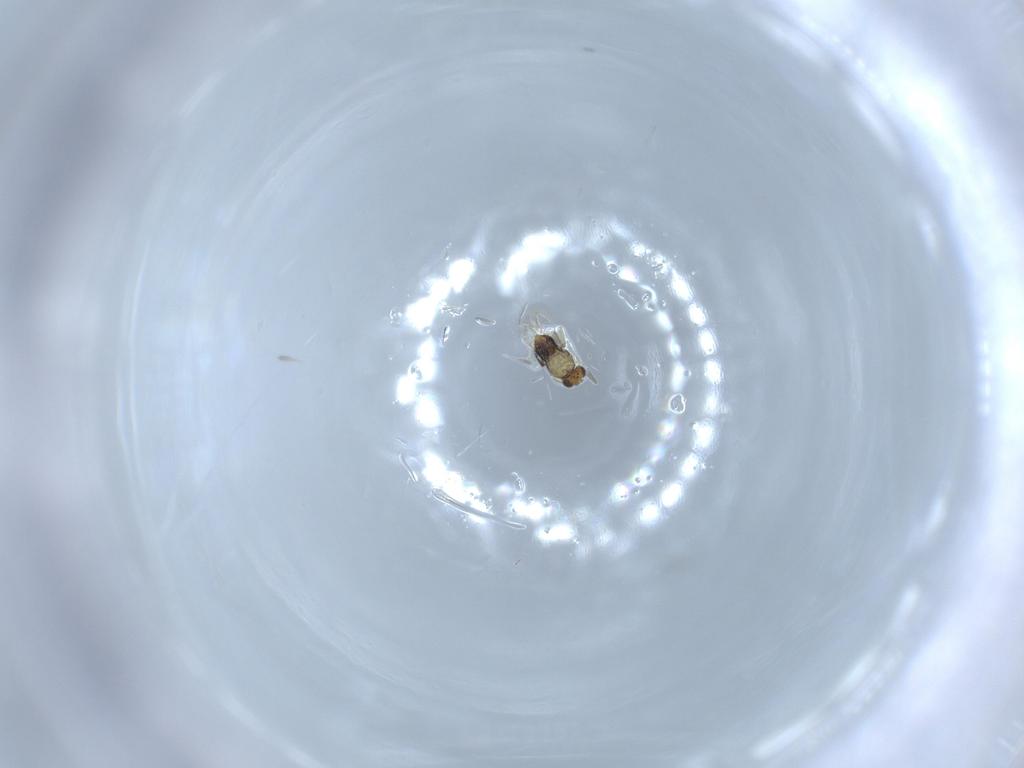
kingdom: Animalia
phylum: Arthropoda
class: Insecta
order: Hymenoptera
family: Aphelinidae
